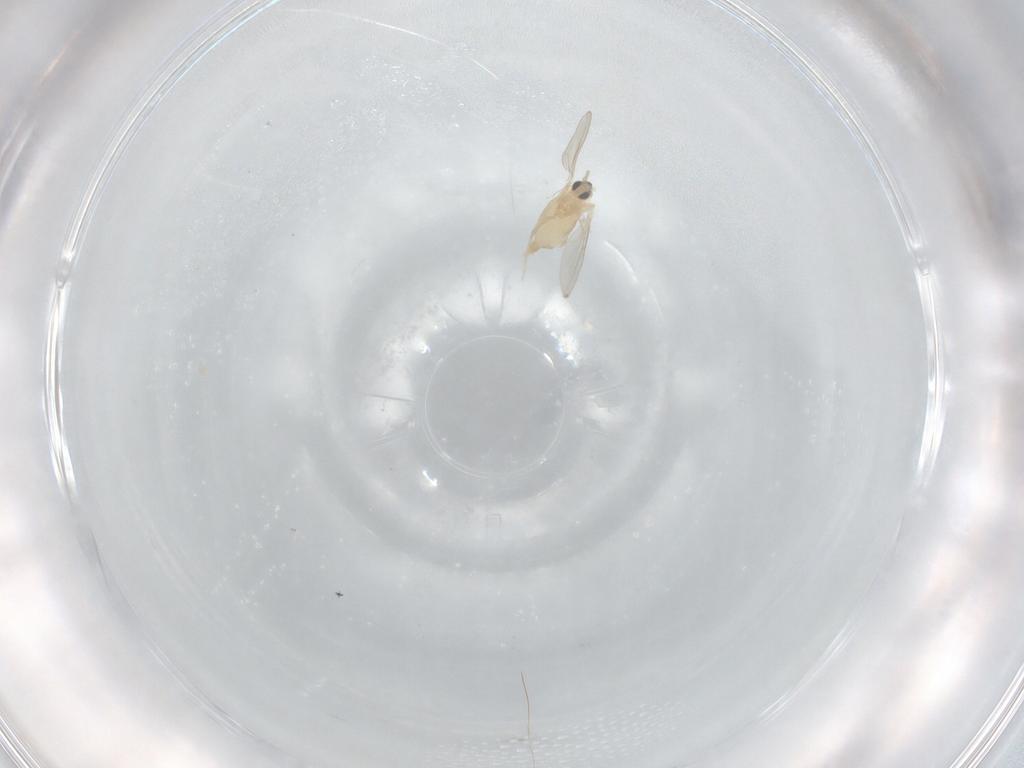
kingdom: Animalia
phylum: Arthropoda
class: Insecta
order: Diptera
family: Cecidomyiidae
